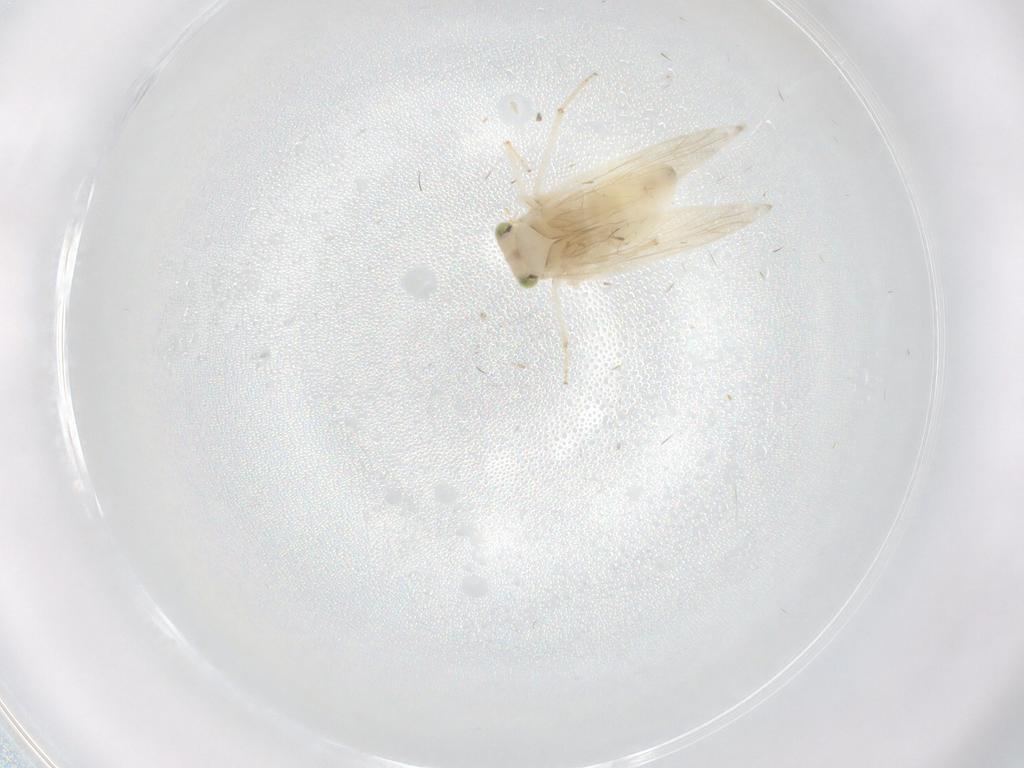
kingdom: Animalia
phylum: Arthropoda
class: Insecta
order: Psocodea
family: Lepidopsocidae
